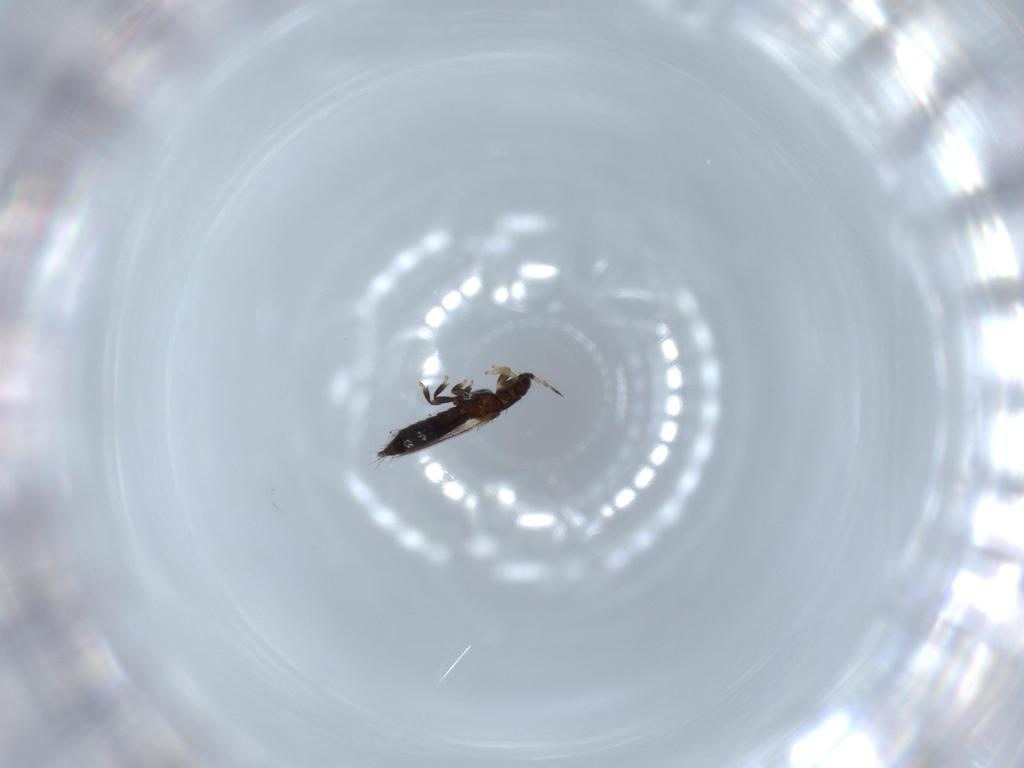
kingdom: Animalia
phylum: Arthropoda
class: Insecta
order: Thysanoptera
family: Thripidae
